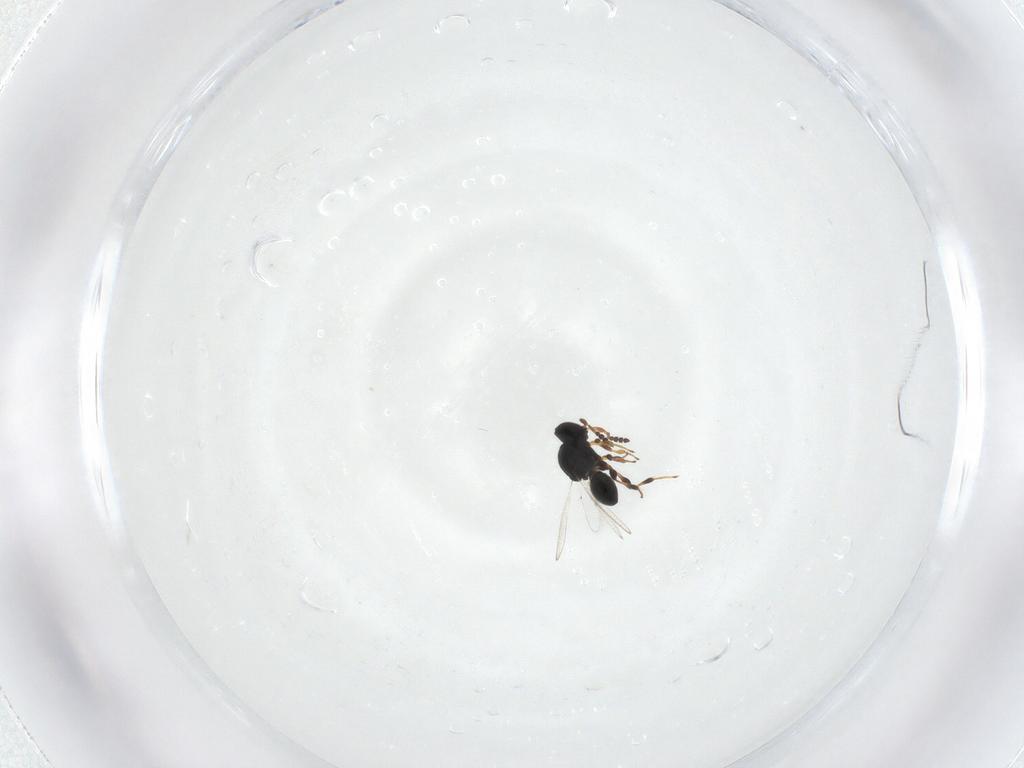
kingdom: Animalia
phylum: Arthropoda
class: Insecta
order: Hymenoptera
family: Platygastridae
